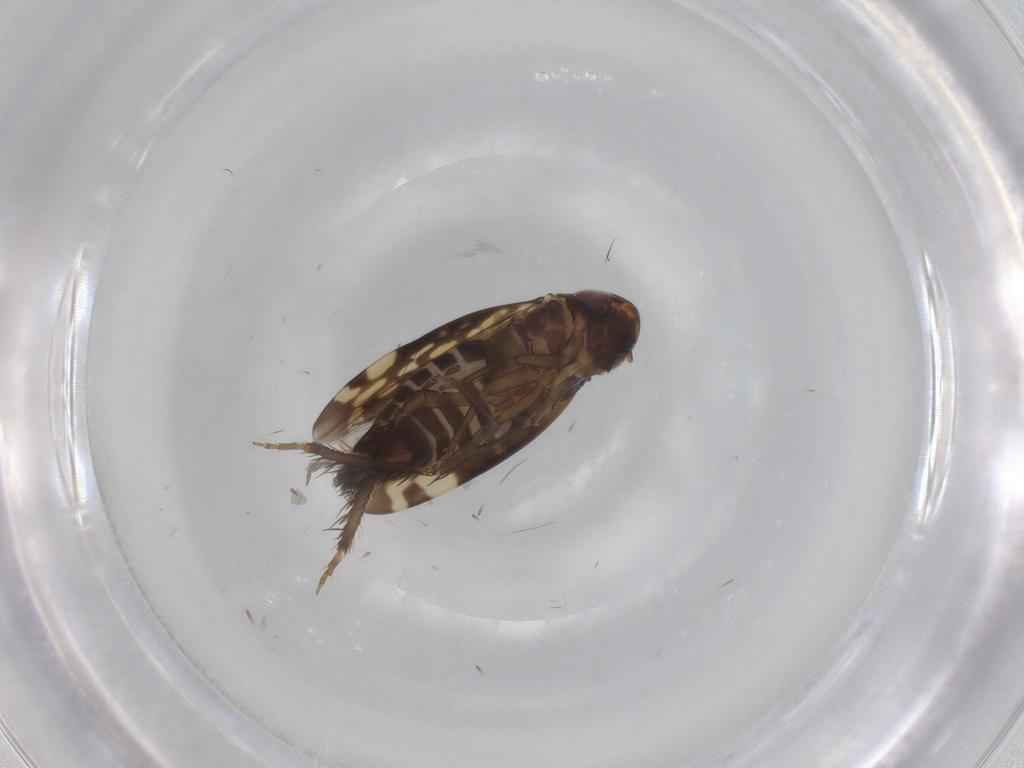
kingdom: Animalia
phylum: Arthropoda
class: Insecta
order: Hemiptera
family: Cicadellidae
